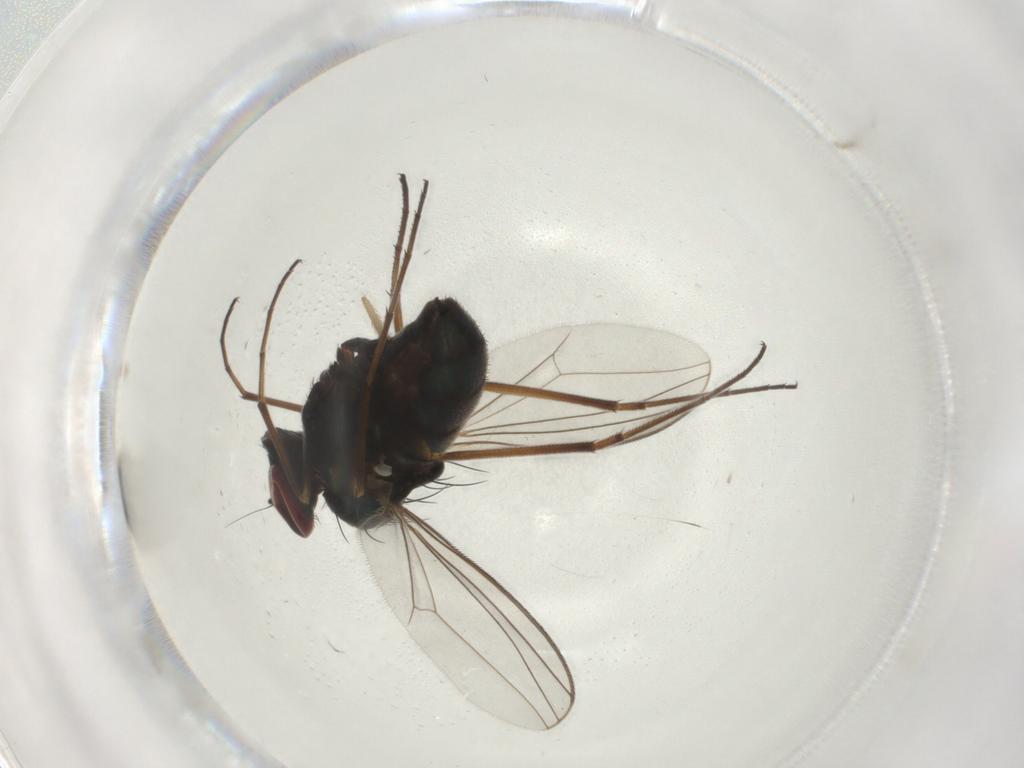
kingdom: Animalia
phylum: Arthropoda
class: Insecta
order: Diptera
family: Dolichopodidae
